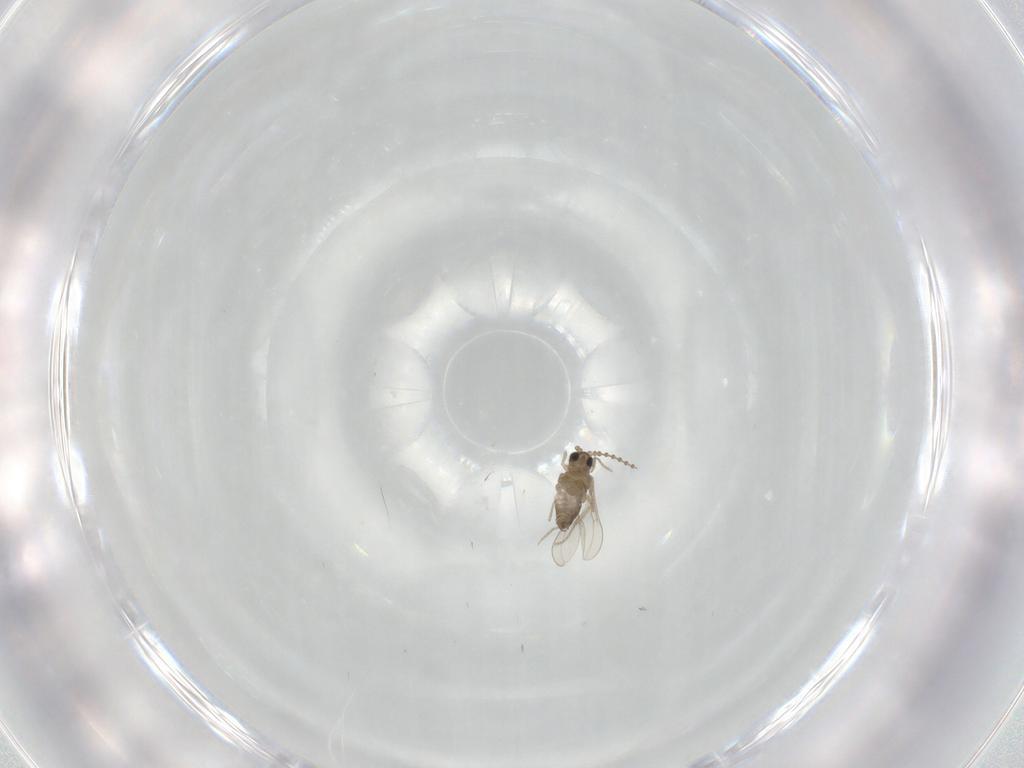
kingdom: Animalia
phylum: Arthropoda
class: Insecta
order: Diptera
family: Cecidomyiidae
